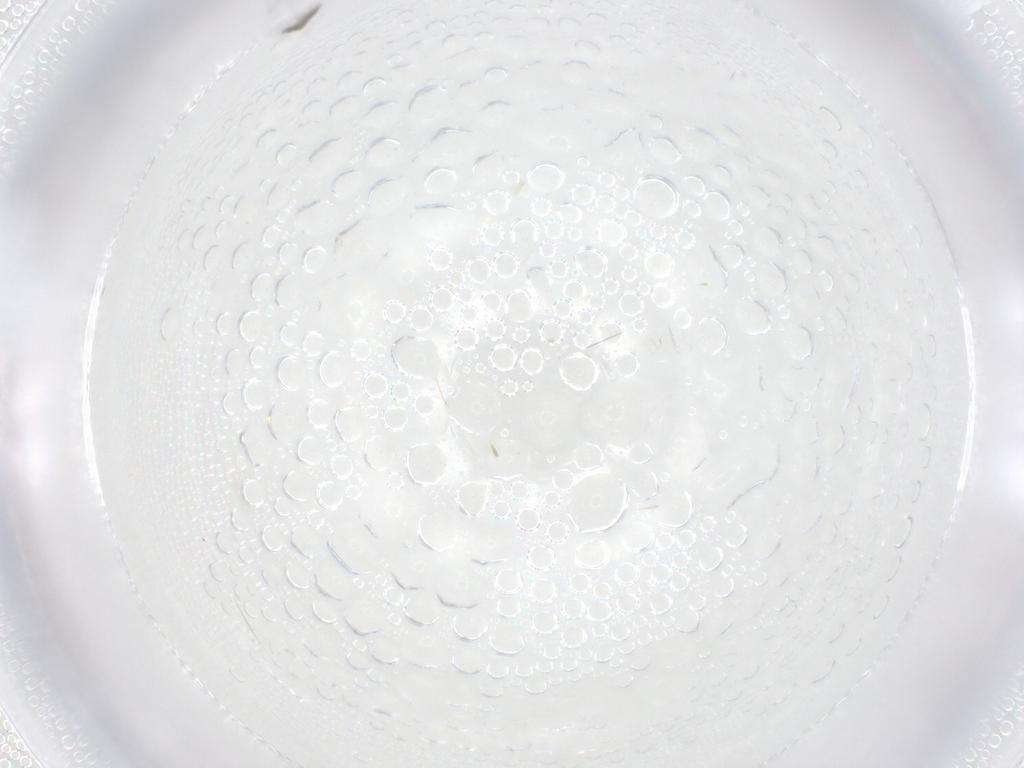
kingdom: Animalia
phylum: Arthropoda
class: Insecta
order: Hymenoptera
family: Mymaridae
